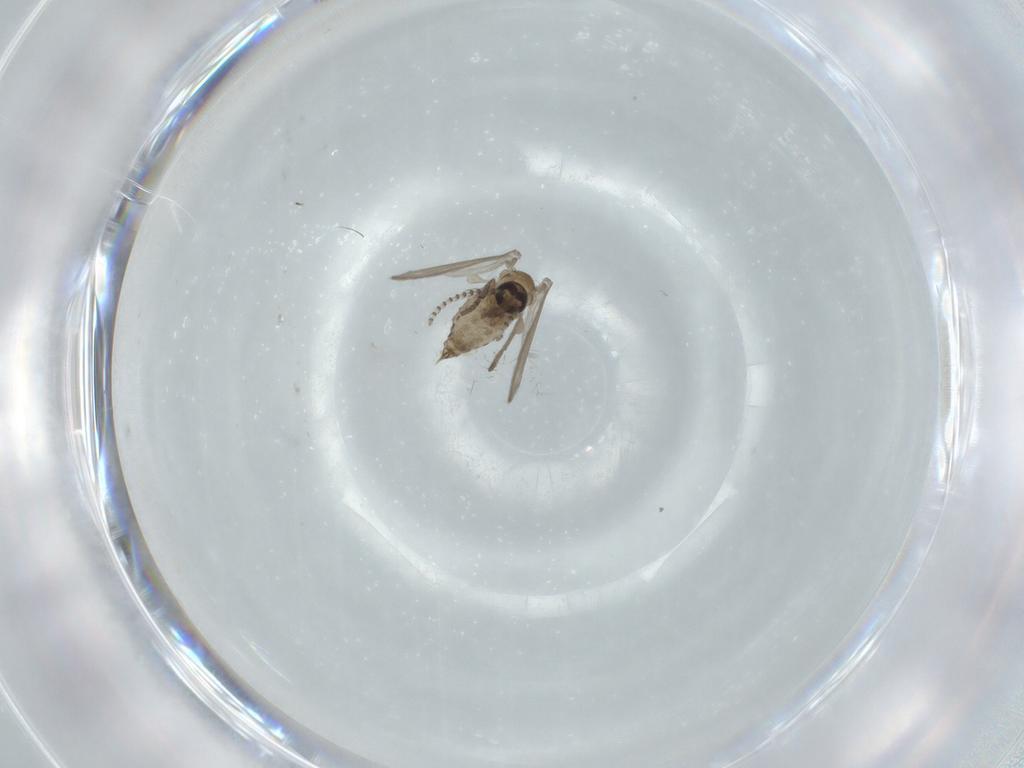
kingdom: Animalia
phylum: Arthropoda
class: Insecta
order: Diptera
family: Psychodidae
